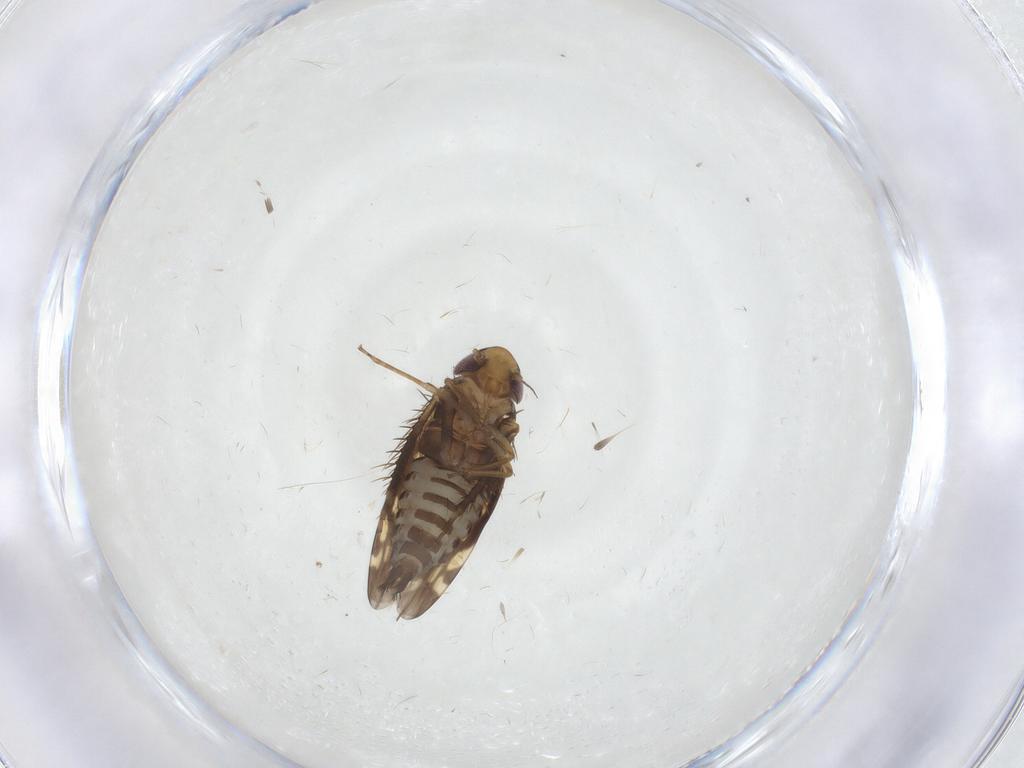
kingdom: Animalia
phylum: Arthropoda
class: Insecta
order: Hemiptera
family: Cicadellidae
